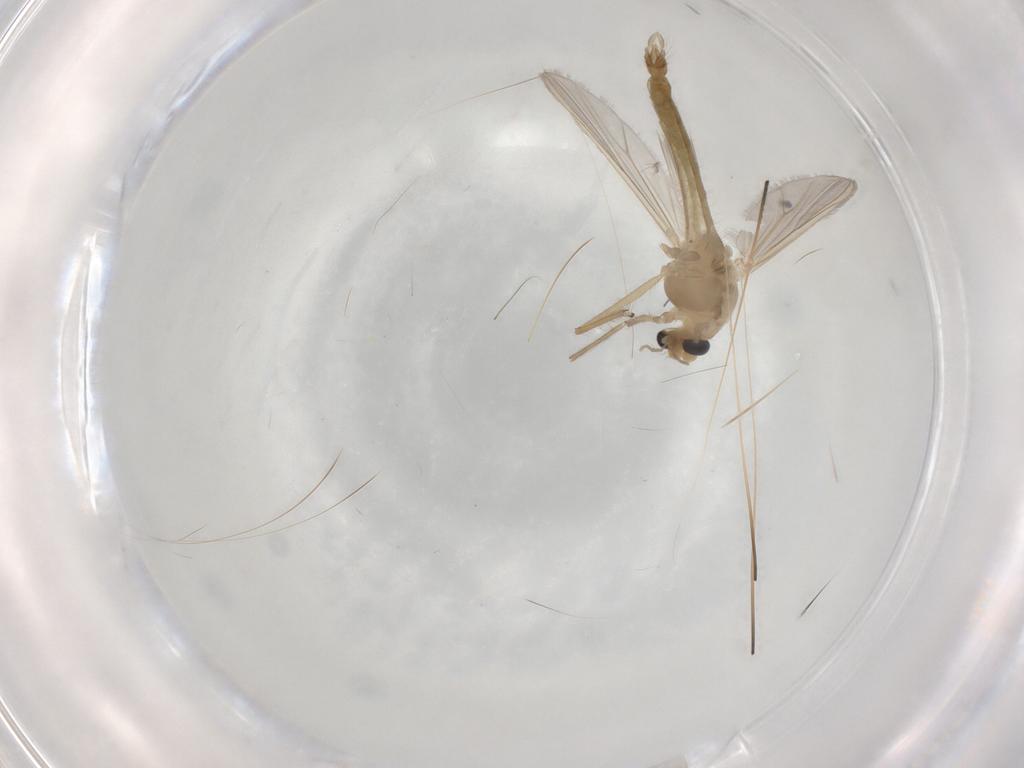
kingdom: Animalia
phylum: Arthropoda
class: Insecta
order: Diptera
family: Chironomidae
